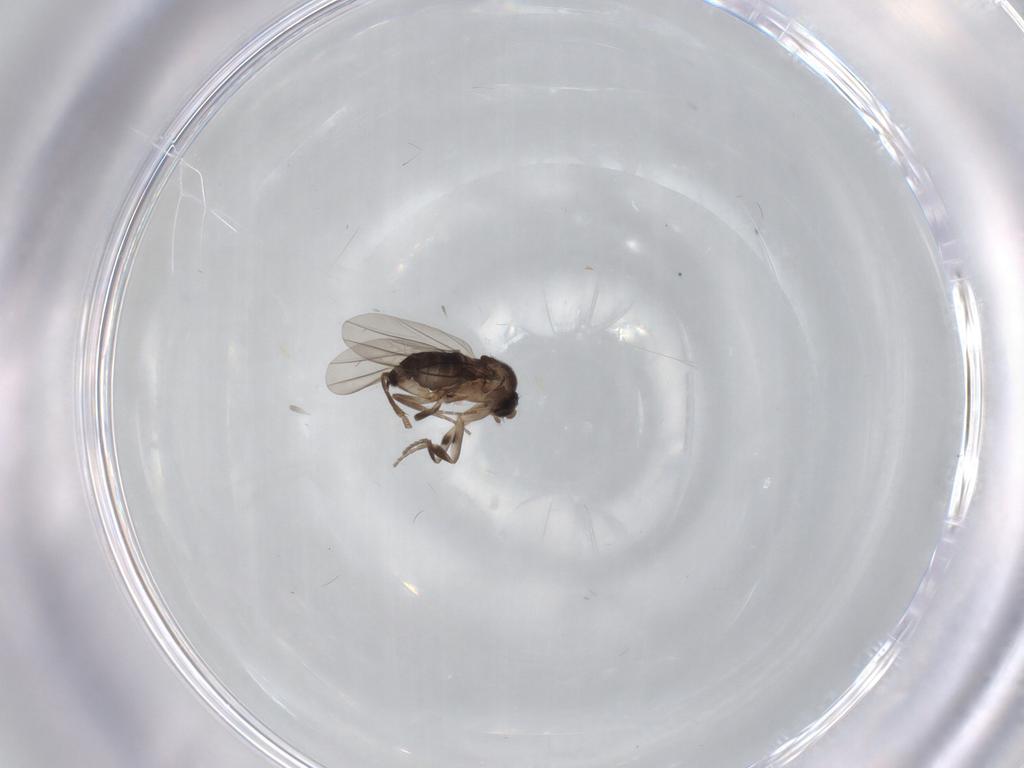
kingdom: Animalia
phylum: Arthropoda
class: Insecta
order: Diptera
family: Phoridae
